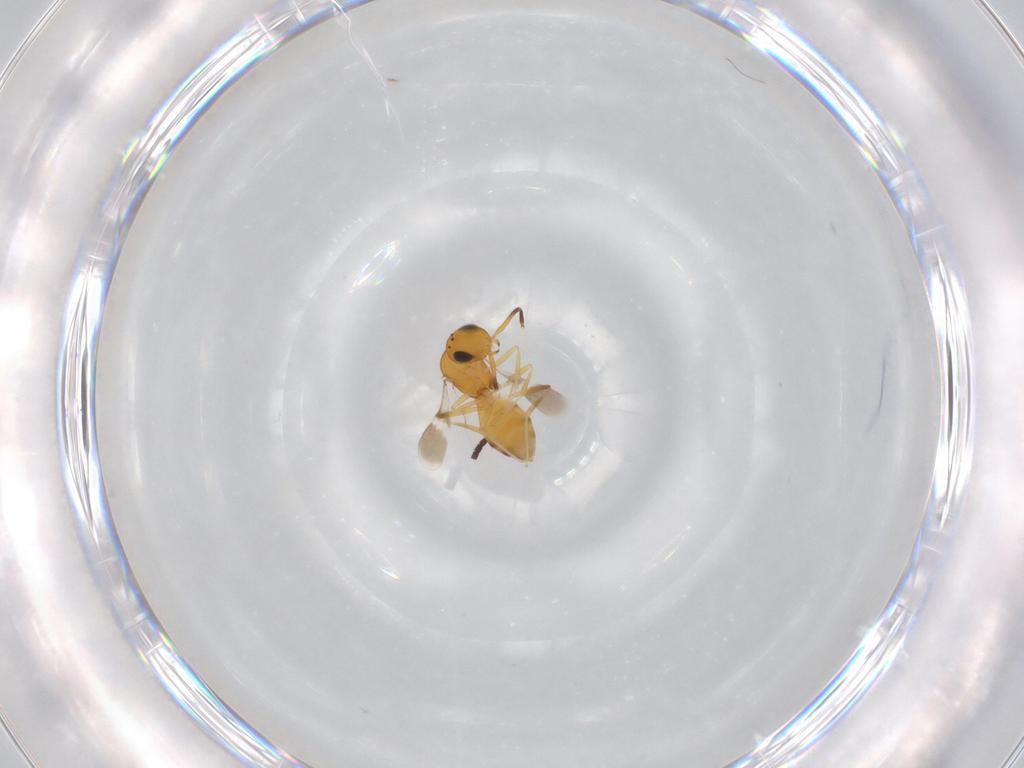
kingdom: Animalia
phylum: Arthropoda
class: Insecta
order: Hymenoptera
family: Scelionidae
